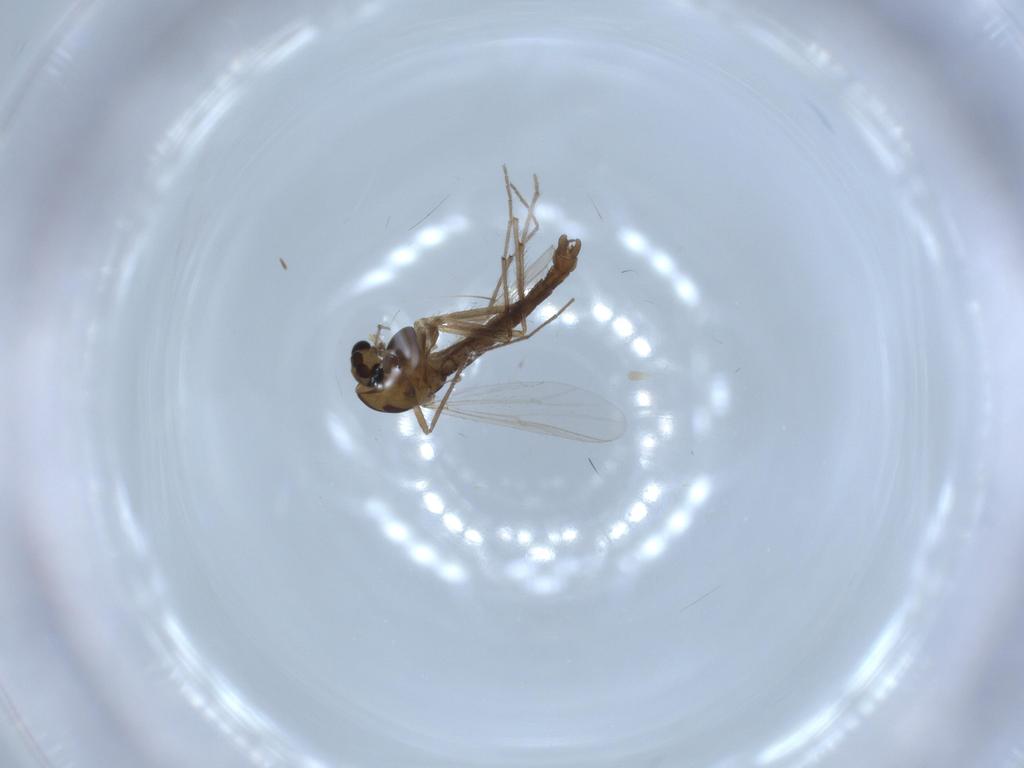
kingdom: Animalia
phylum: Arthropoda
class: Insecta
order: Diptera
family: Chironomidae
